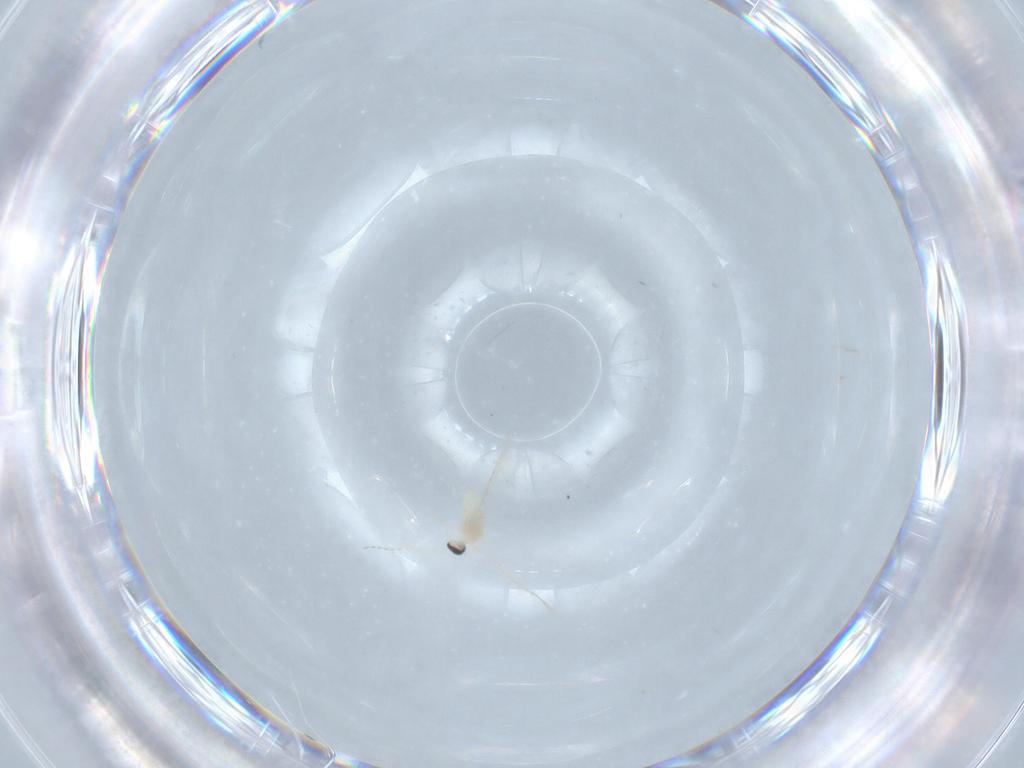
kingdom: Animalia
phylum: Arthropoda
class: Insecta
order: Diptera
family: Cecidomyiidae
